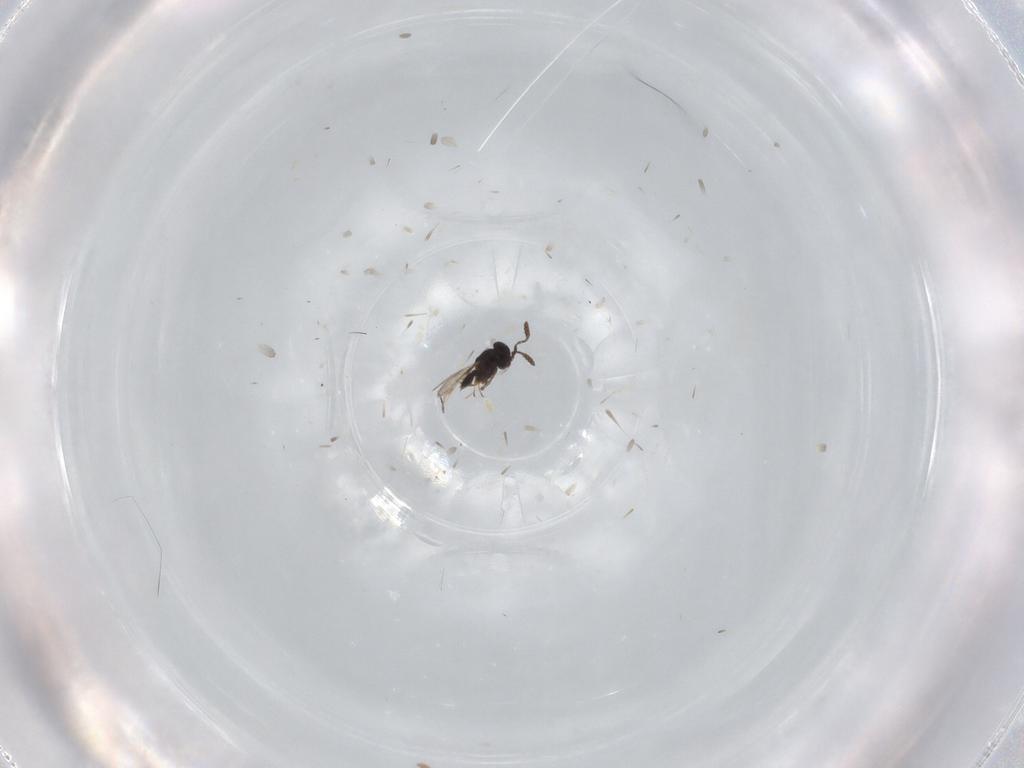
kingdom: Animalia
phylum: Arthropoda
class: Insecta
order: Hymenoptera
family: Scelionidae
